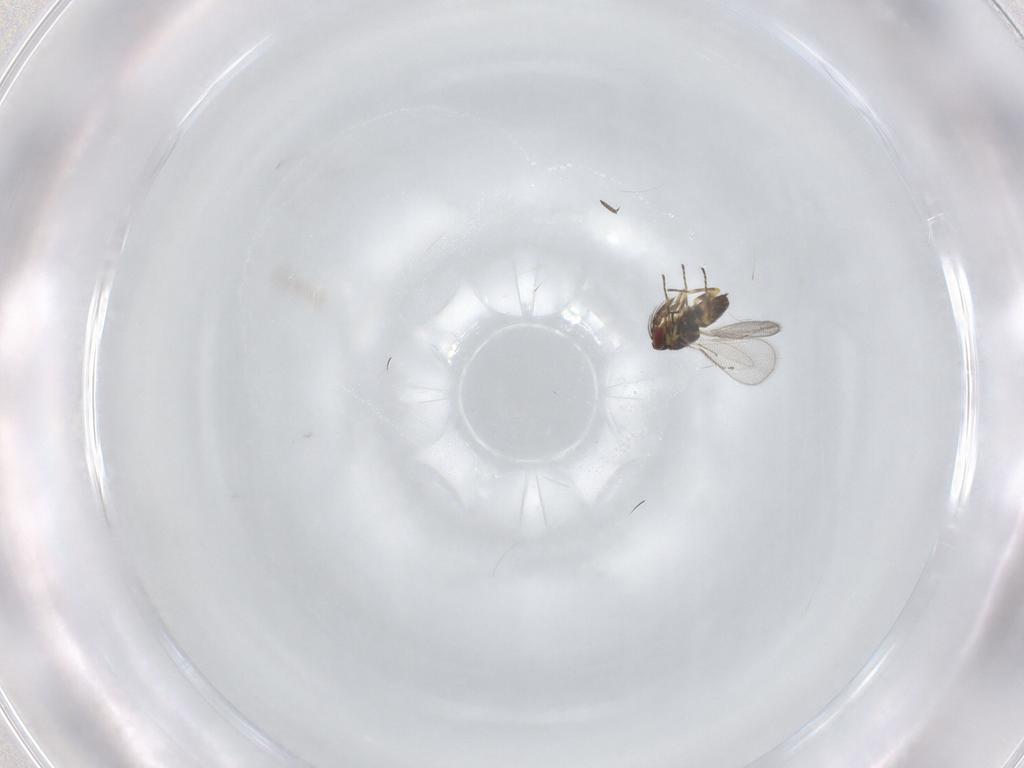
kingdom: Animalia
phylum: Arthropoda
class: Insecta
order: Hymenoptera
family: Eulophidae
